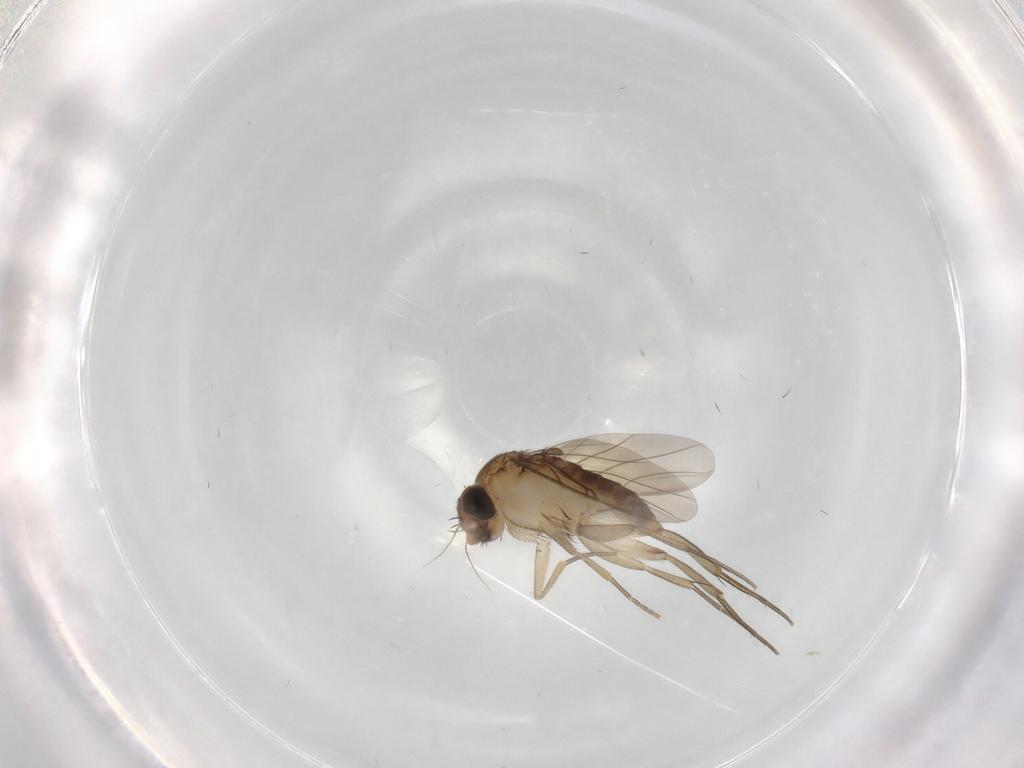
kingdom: Animalia
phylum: Arthropoda
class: Insecta
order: Diptera
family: Phoridae
